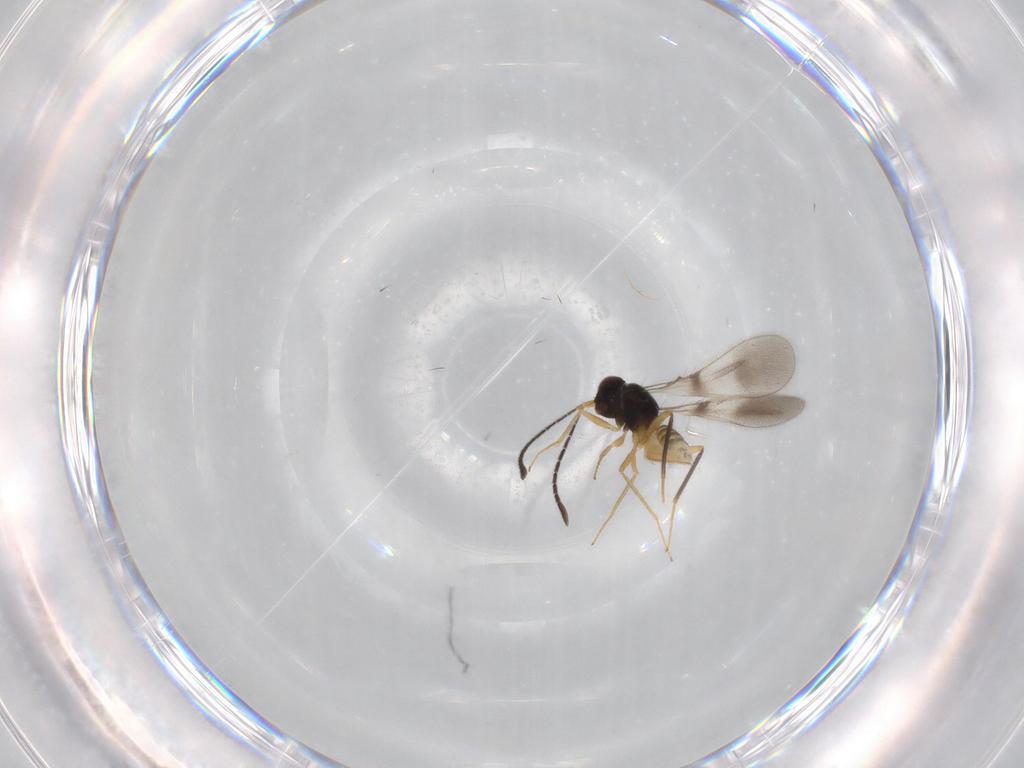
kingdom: Animalia
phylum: Arthropoda
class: Insecta
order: Hymenoptera
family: Mymaridae
